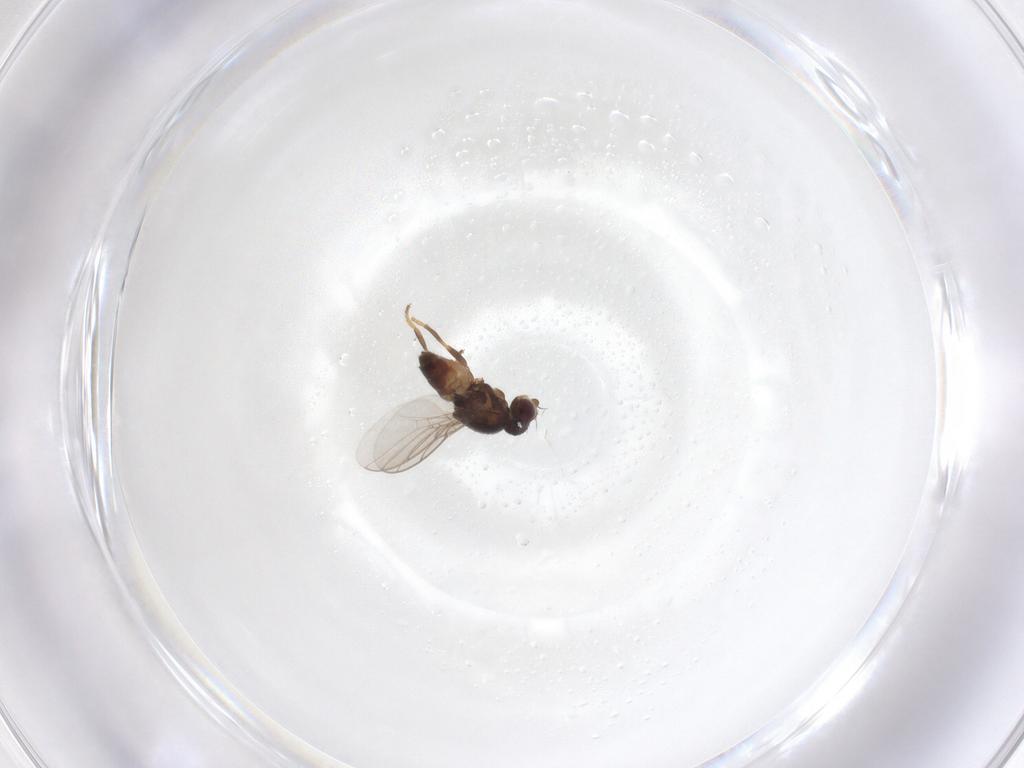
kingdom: Animalia
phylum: Arthropoda
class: Insecta
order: Diptera
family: Chloropidae
